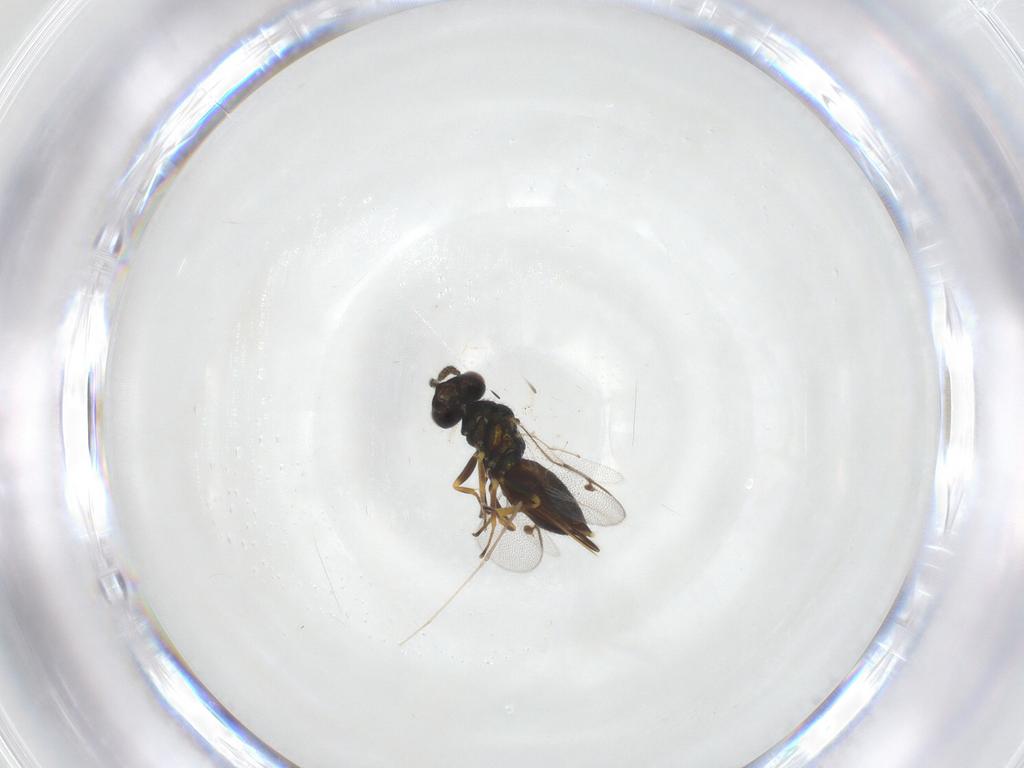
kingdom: Animalia
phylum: Arthropoda
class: Insecta
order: Hymenoptera
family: Pirenidae
